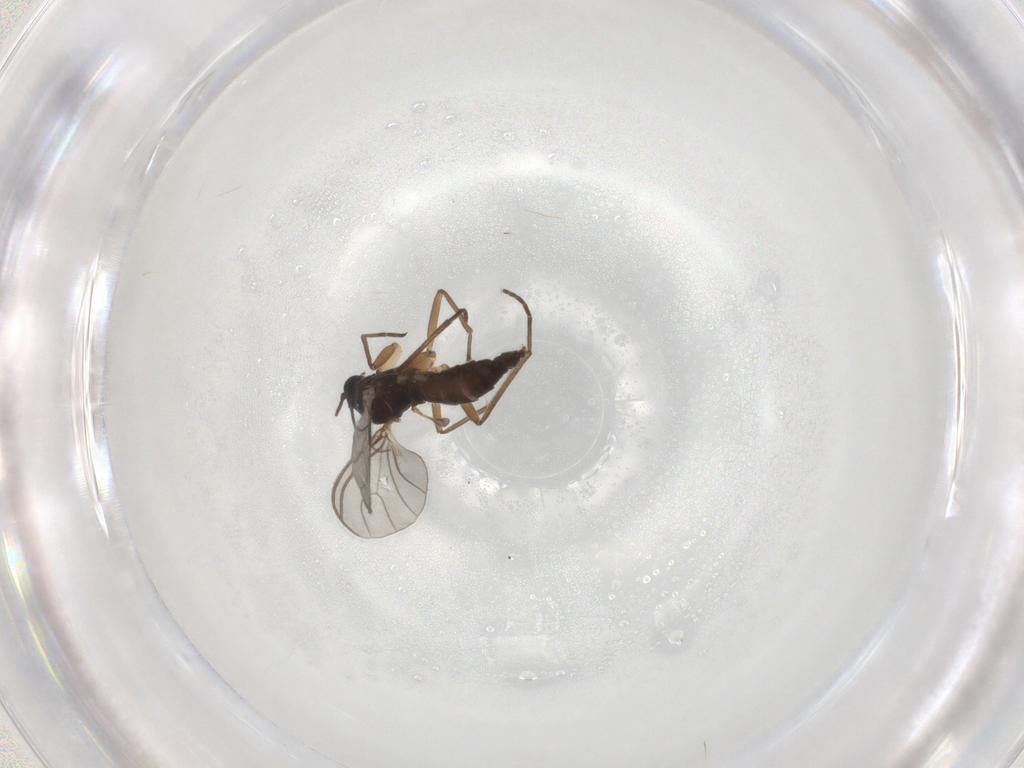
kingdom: Animalia
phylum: Arthropoda
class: Insecta
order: Diptera
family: Sciaridae
